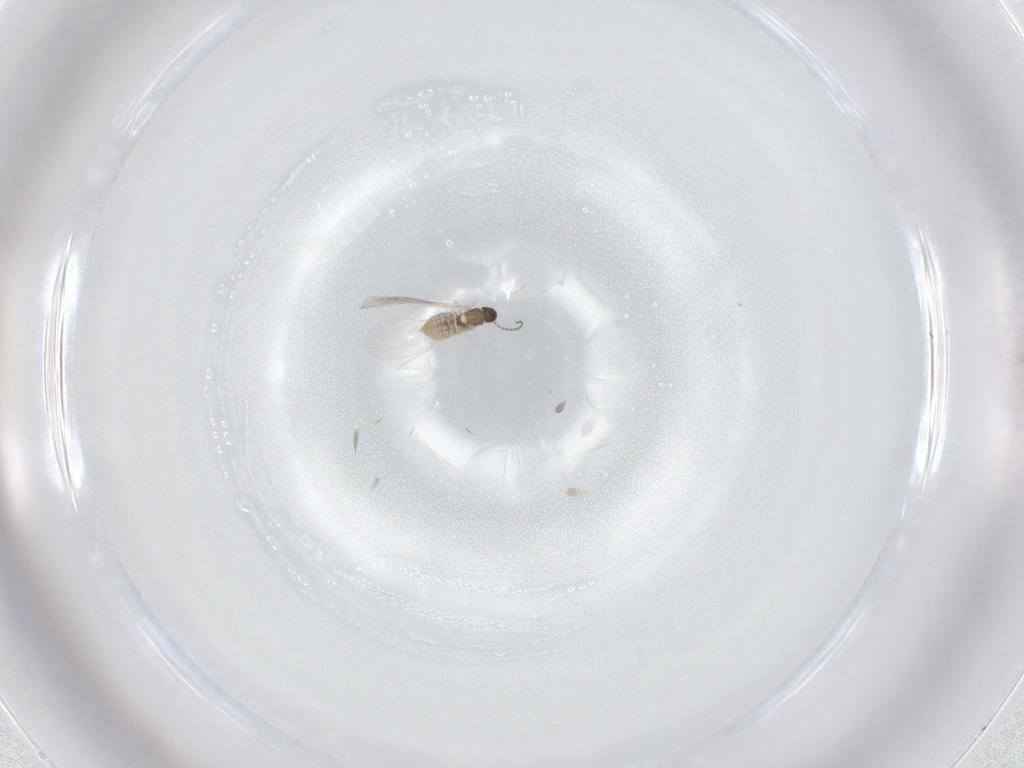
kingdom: Animalia
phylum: Arthropoda
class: Insecta
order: Diptera
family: Cecidomyiidae
